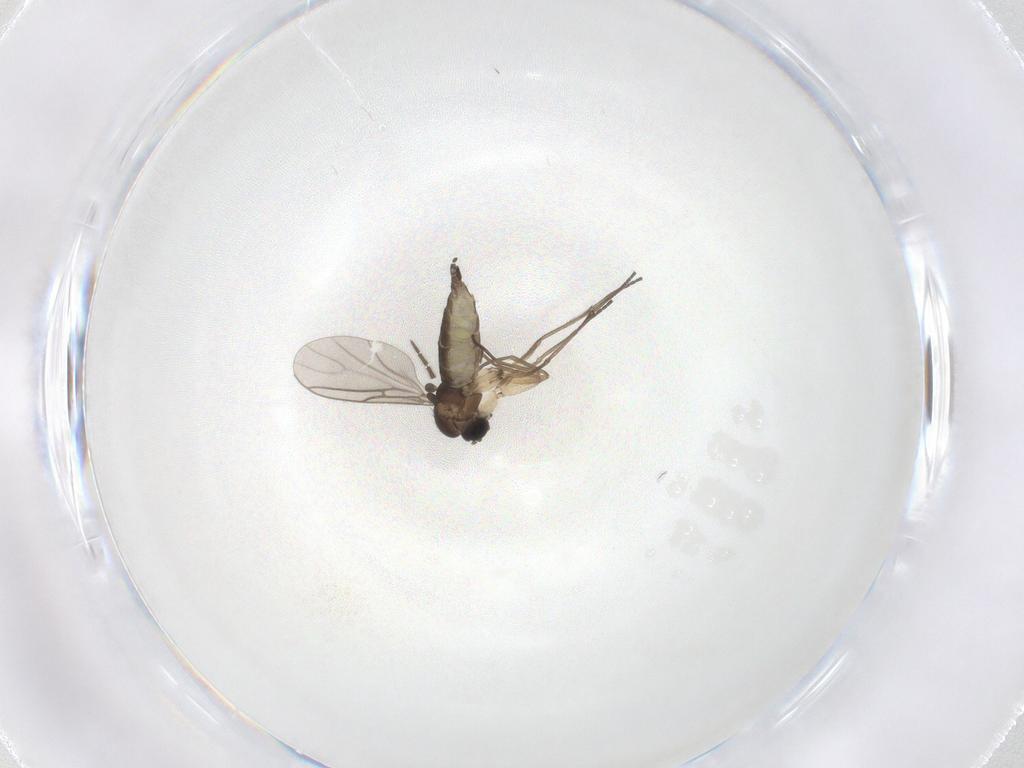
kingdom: Animalia
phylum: Arthropoda
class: Insecta
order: Diptera
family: Sciaridae
